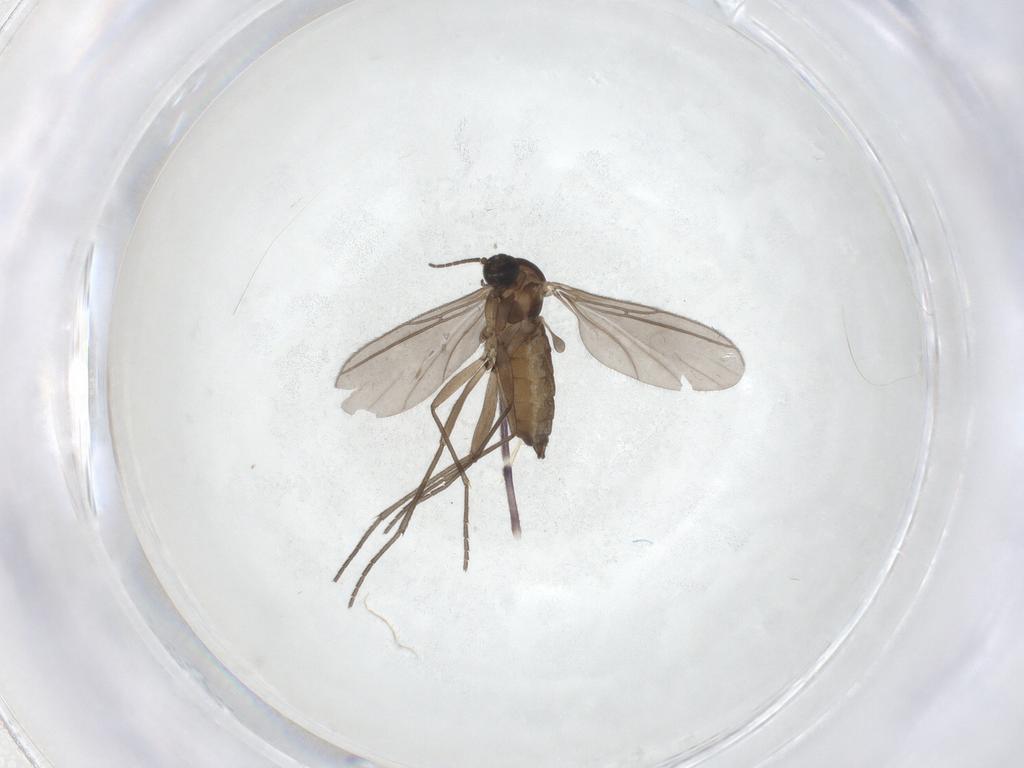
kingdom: Animalia
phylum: Arthropoda
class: Insecta
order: Diptera
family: Sciaridae
